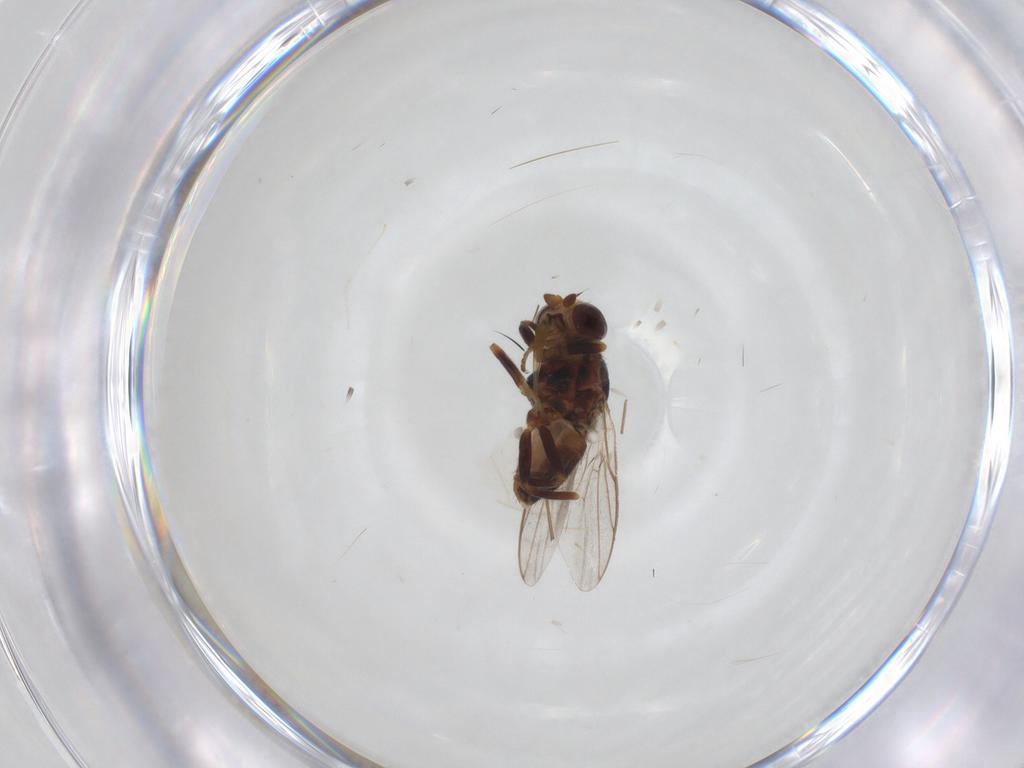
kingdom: Animalia
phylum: Arthropoda
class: Insecta
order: Diptera
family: Chloropidae
